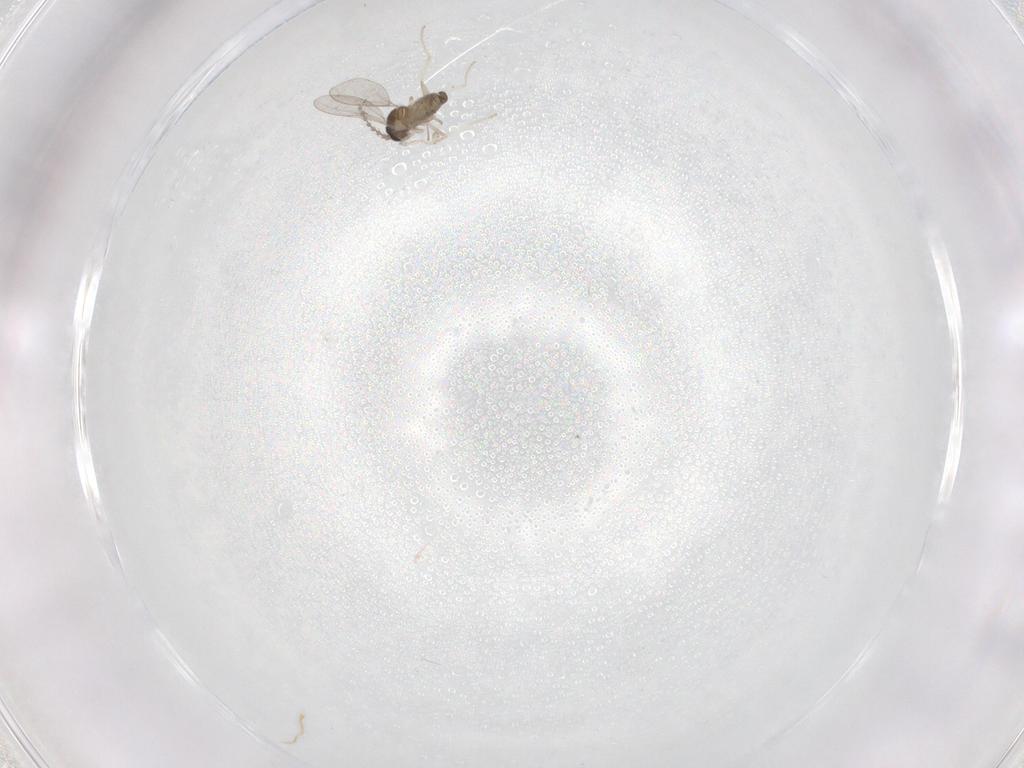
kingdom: Animalia
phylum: Arthropoda
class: Insecta
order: Diptera
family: Cecidomyiidae
